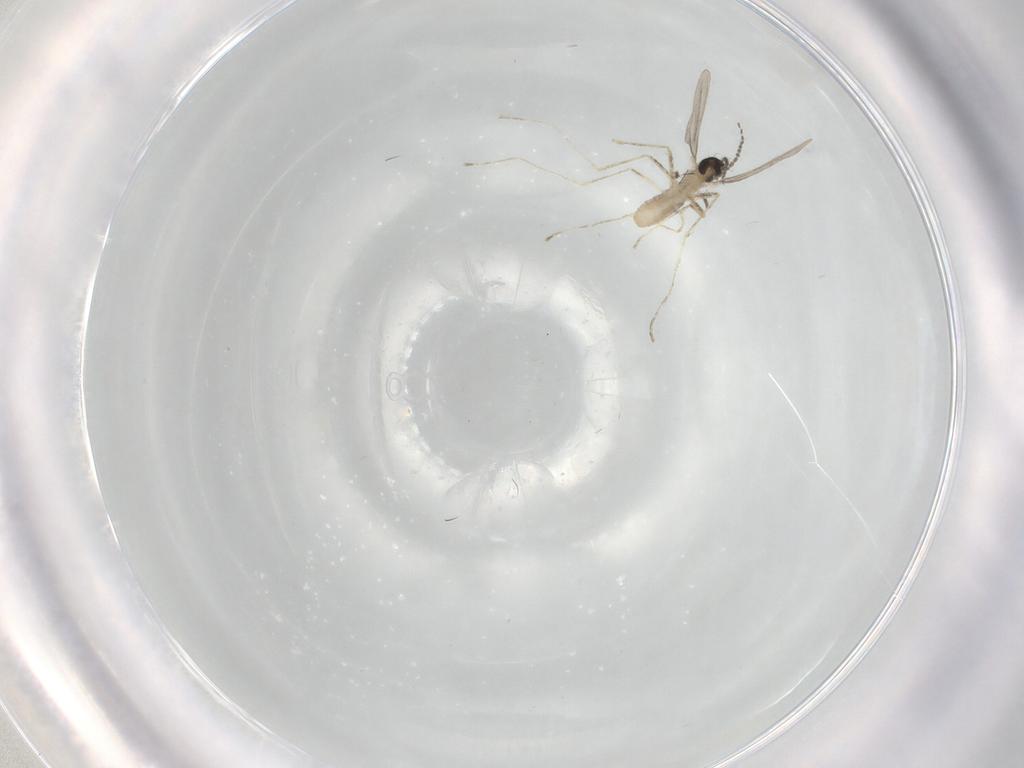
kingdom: Animalia
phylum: Arthropoda
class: Insecta
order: Diptera
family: Cecidomyiidae
